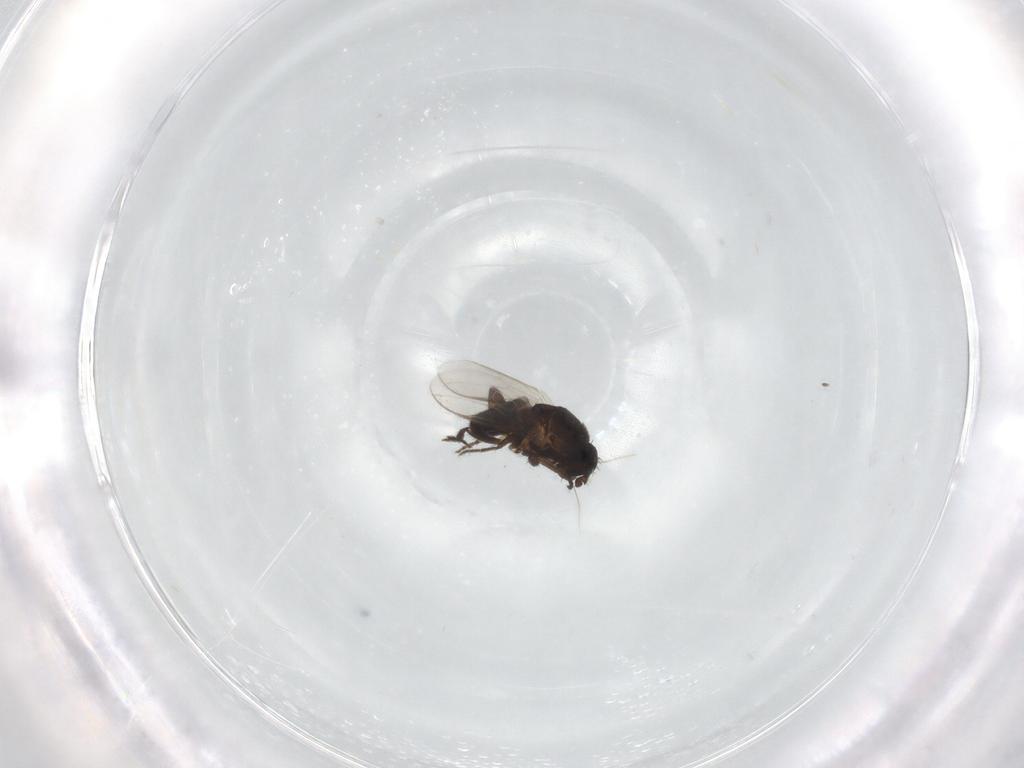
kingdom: Animalia
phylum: Arthropoda
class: Insecta
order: Diptera
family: Sphaeroceridae
